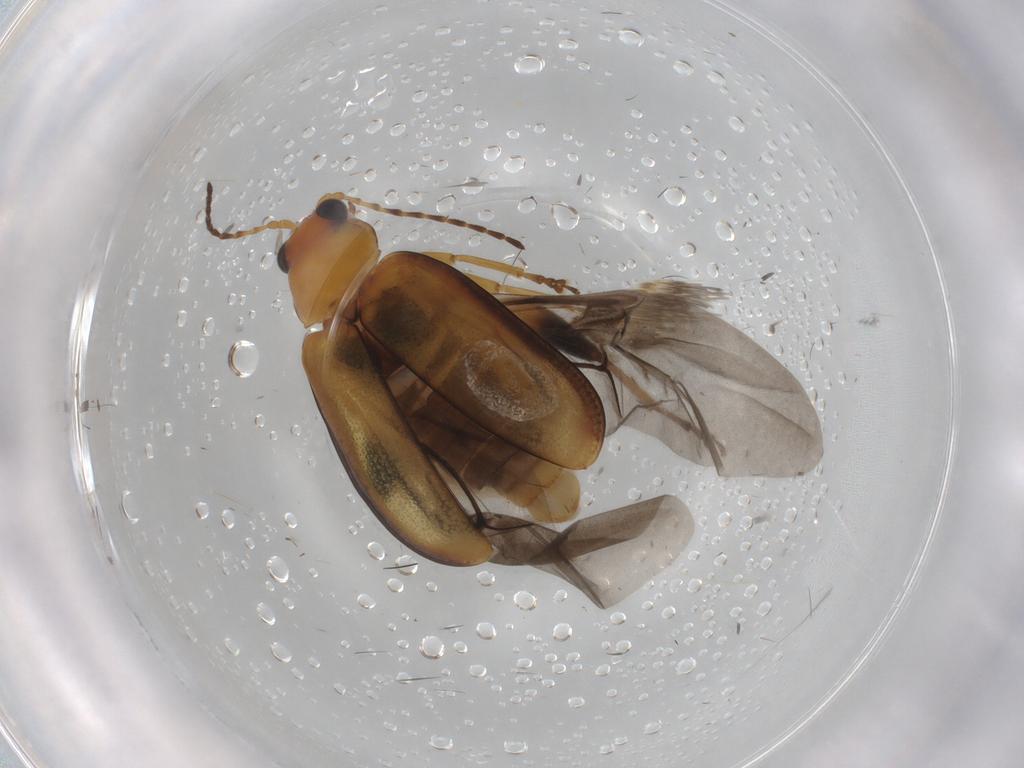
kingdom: Animalia
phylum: Arthropoda
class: Insecta
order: Coleoptera
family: Chrysomelidae
